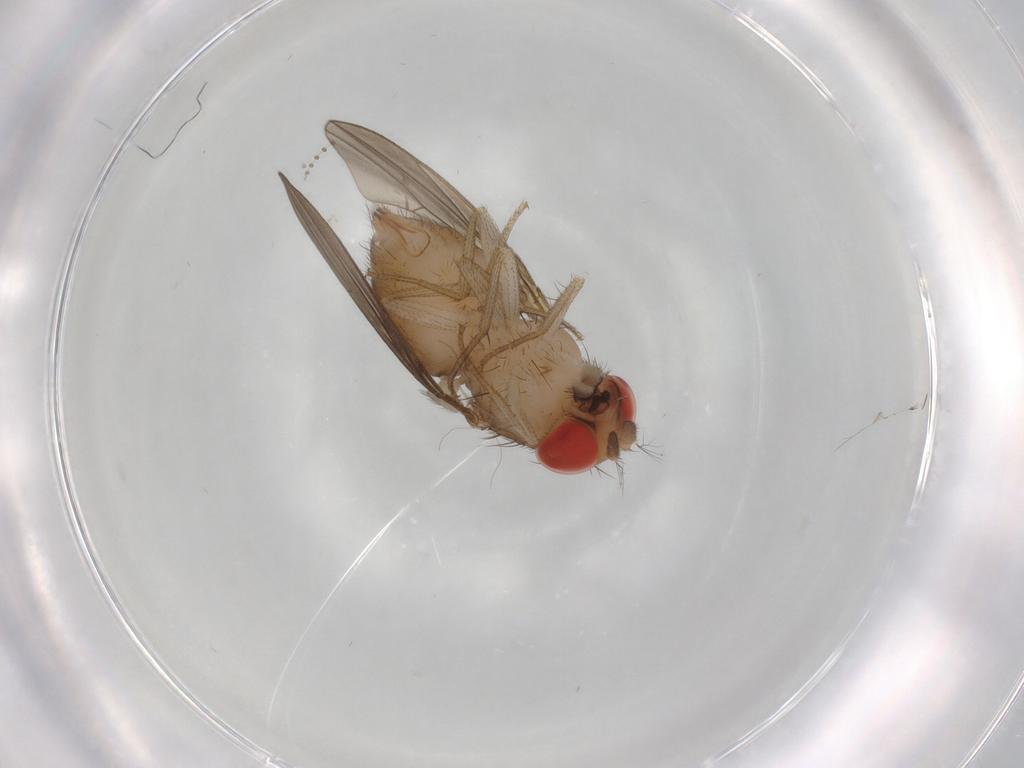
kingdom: Animalia
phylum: Arthropoda
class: Insecta
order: Diptera
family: Drosophilidae
